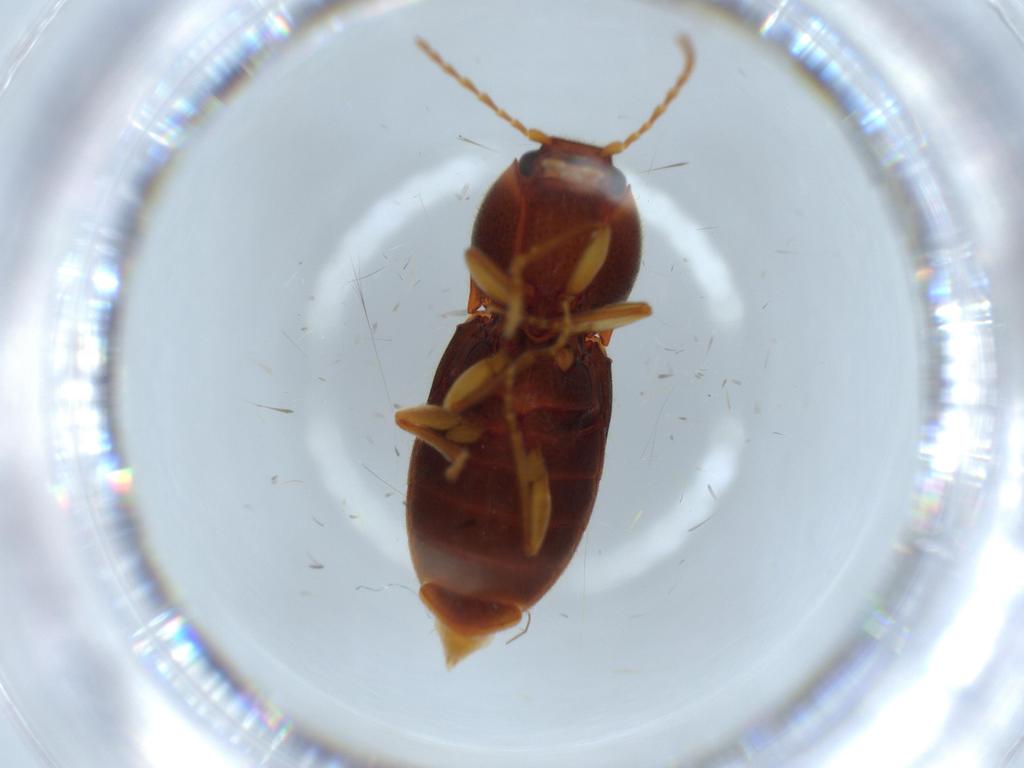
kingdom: Animalia
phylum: Arthropoda
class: Insecta
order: Coleoptera
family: Elateridae
